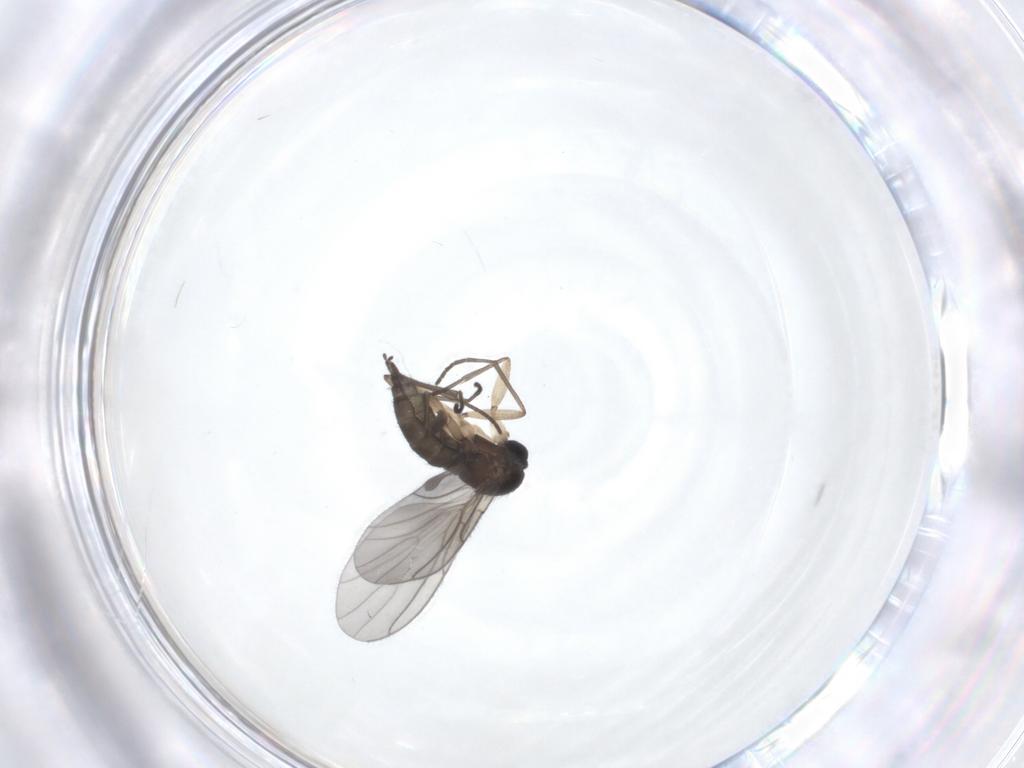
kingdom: Animalia
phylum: Arthropoda
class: Insecta
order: Diptera
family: Sciaridae
